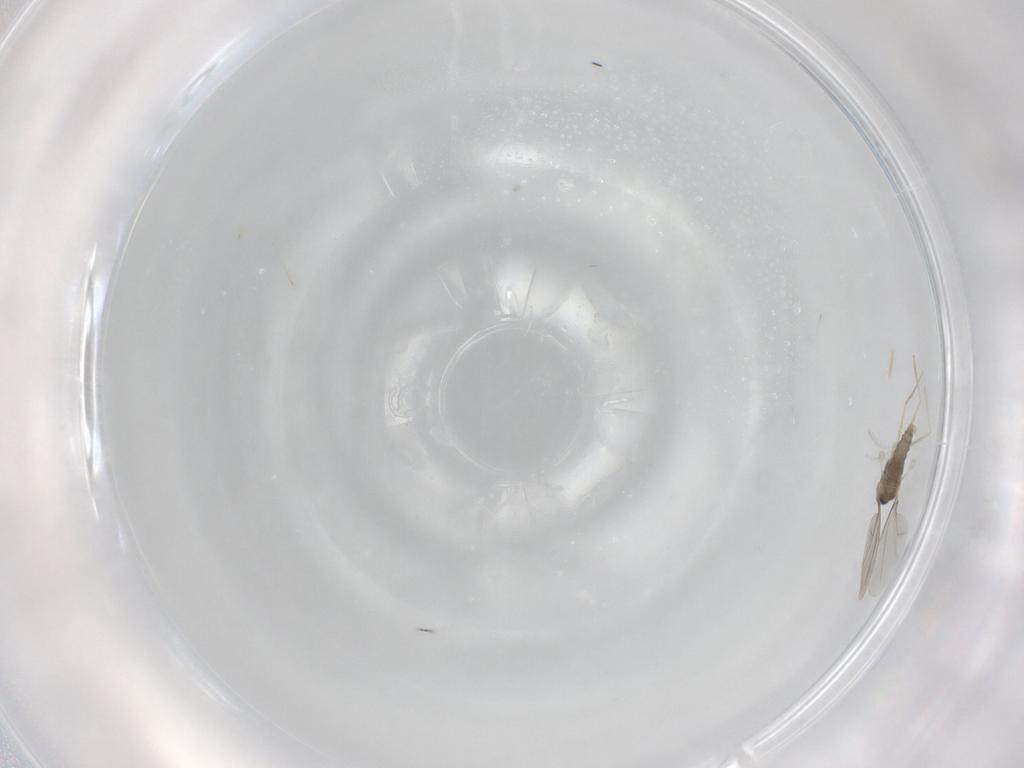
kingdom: Animalia
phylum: Arthropoda
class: Insecta
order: Diptera
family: Cecidomyiidae
